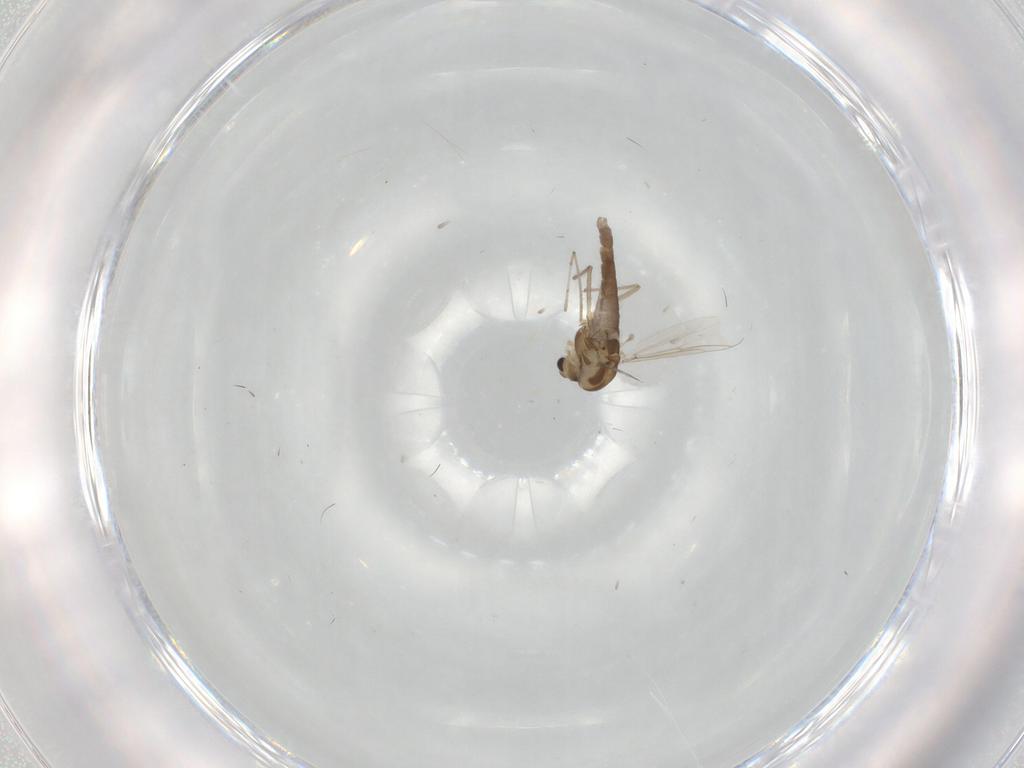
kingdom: Animalia
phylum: Arthropoda
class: Insecta
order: Diptera
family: Chironomidae
